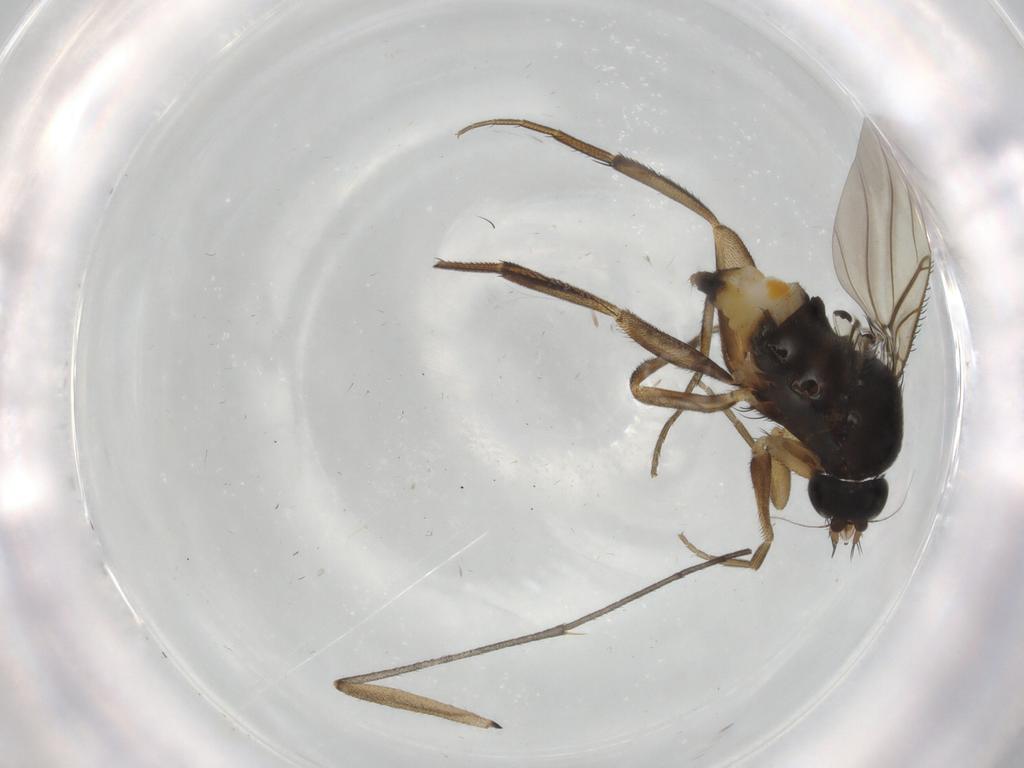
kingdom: Animalia
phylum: Arthropoda
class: Insecta
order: Diptera
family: Phoridae
